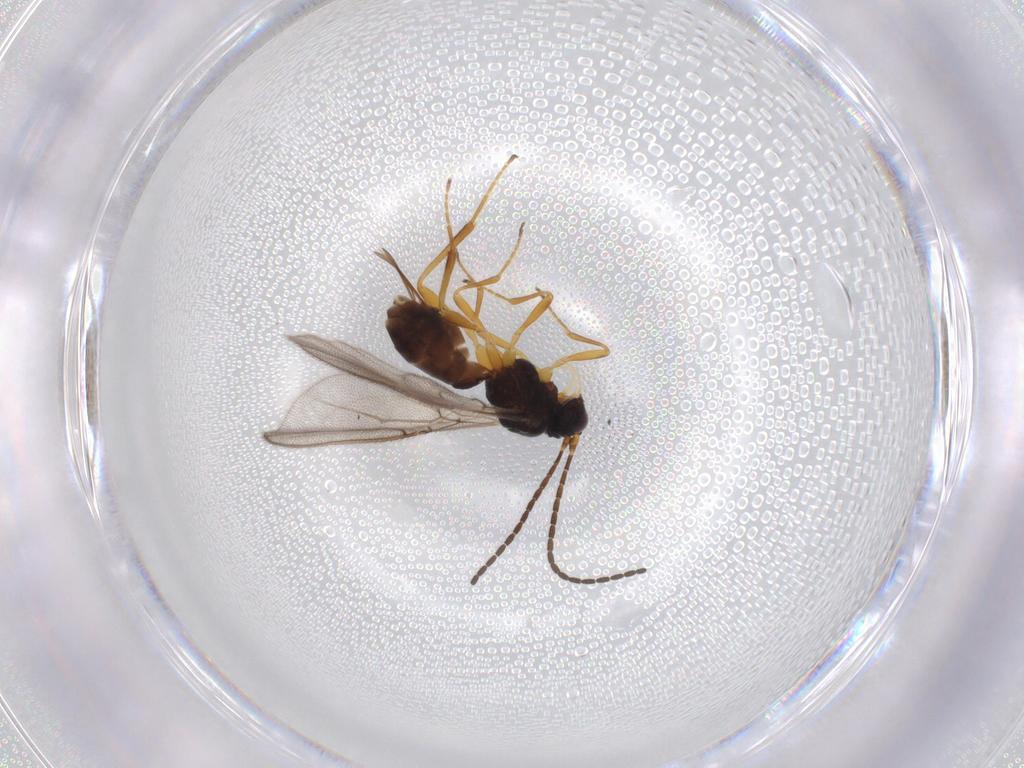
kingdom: Animalia
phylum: Arthropoda
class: Insecta
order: Hymenoptera
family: Braconidae
